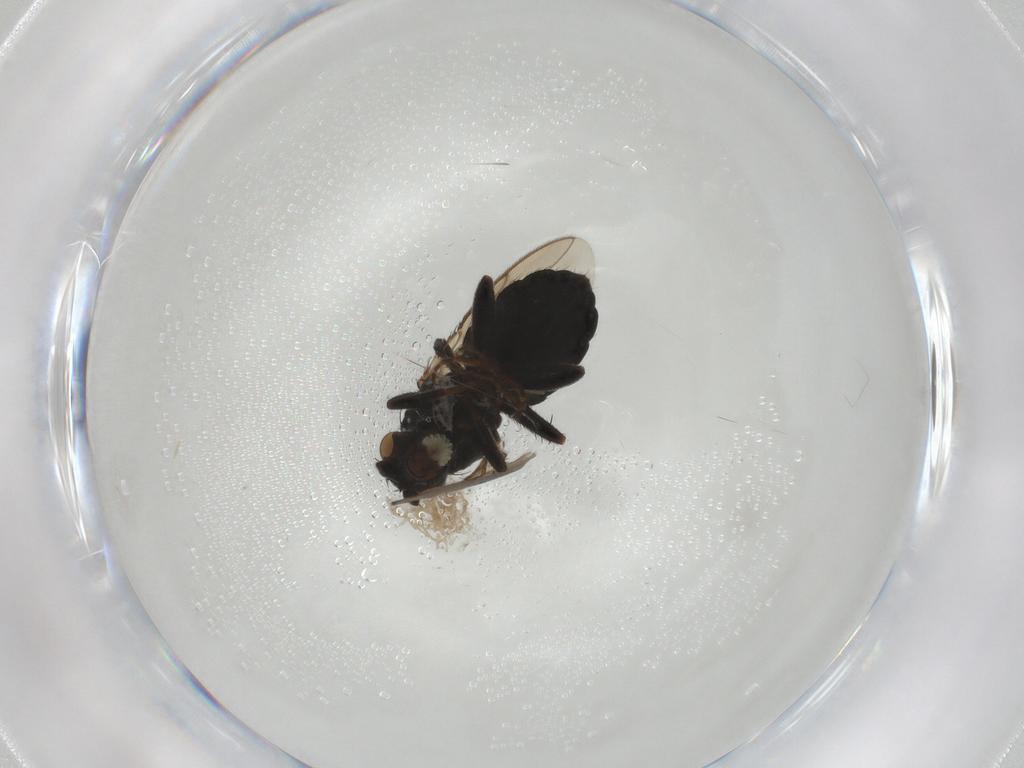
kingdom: Animalia
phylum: Arthropoda
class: Insecta
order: Diptera
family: Sphaeroceridae
